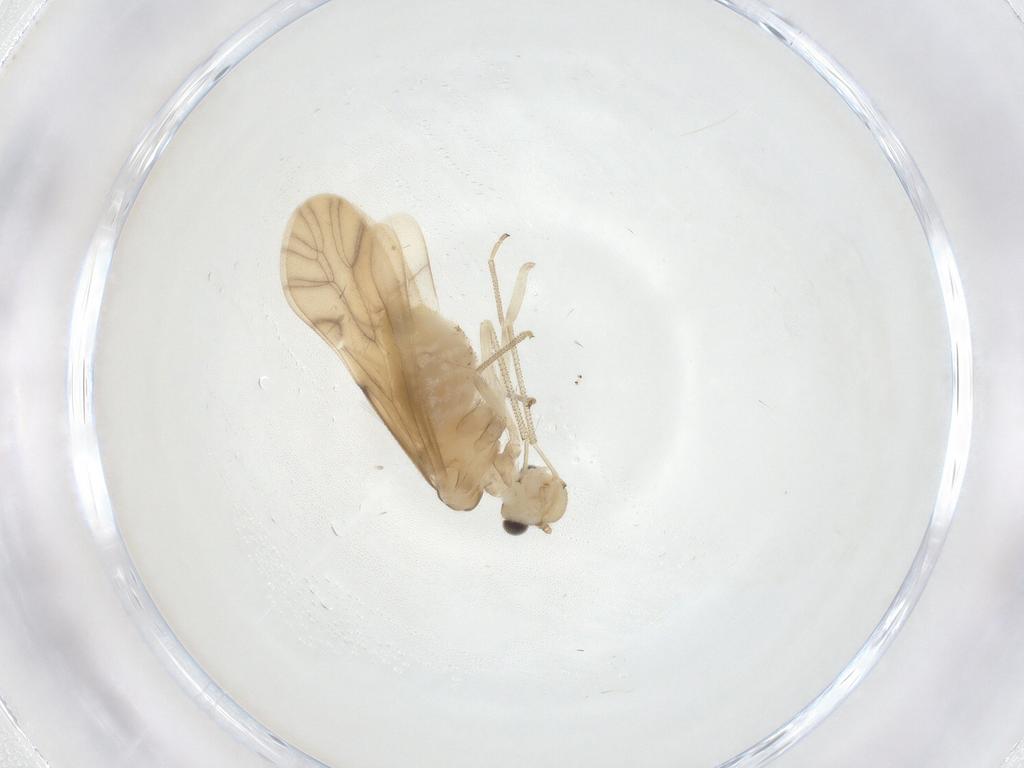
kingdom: Animalia
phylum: Arthropoda
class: Insecta
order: Psocodea
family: Caeciliusidae
